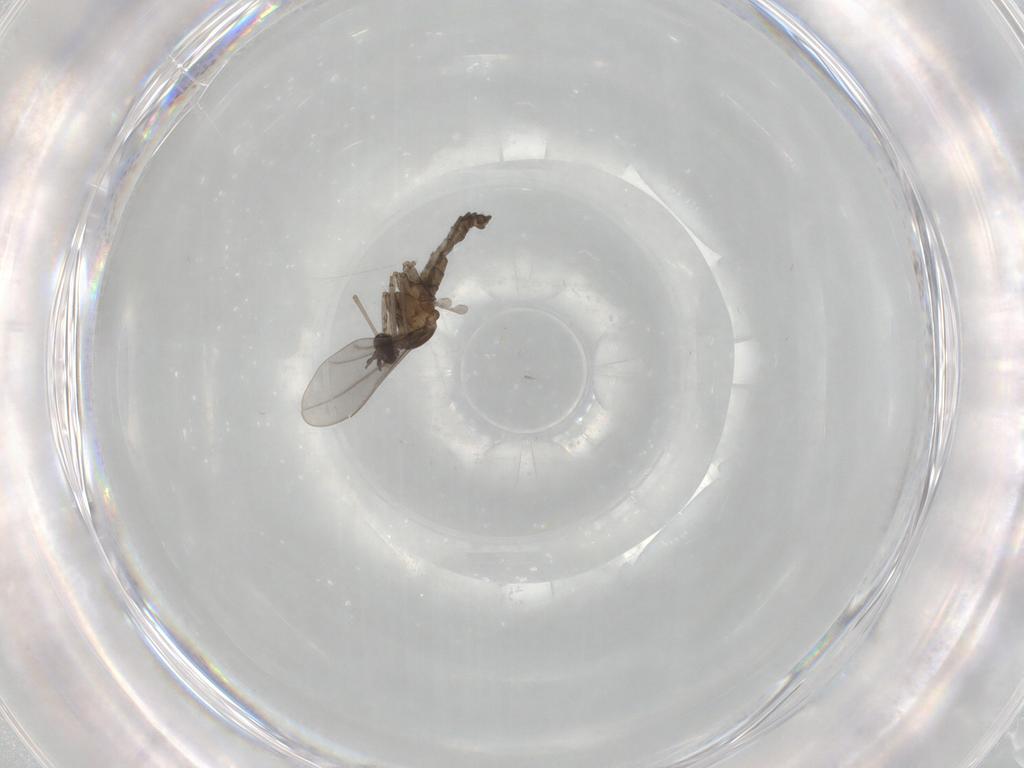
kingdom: Animalia
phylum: Arthropoda
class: Insecta
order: Diptera
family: Cecidomyiidae
